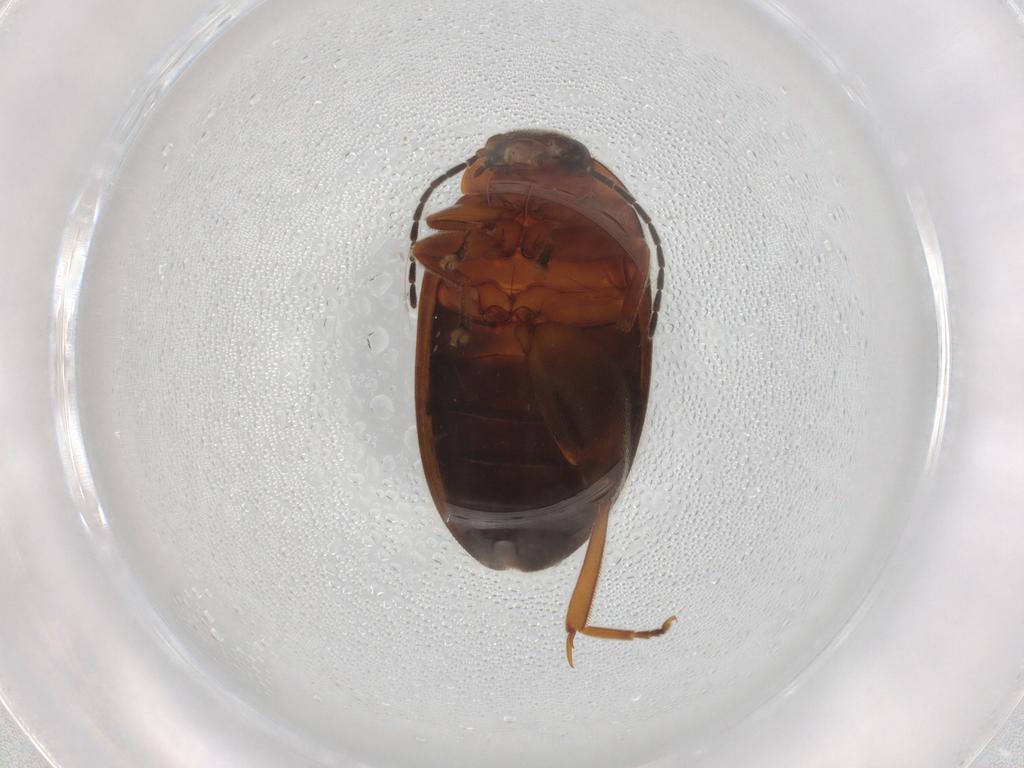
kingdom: Animalia
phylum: Arthropoda
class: Insecta
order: Coleoptera
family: Scirtidae
